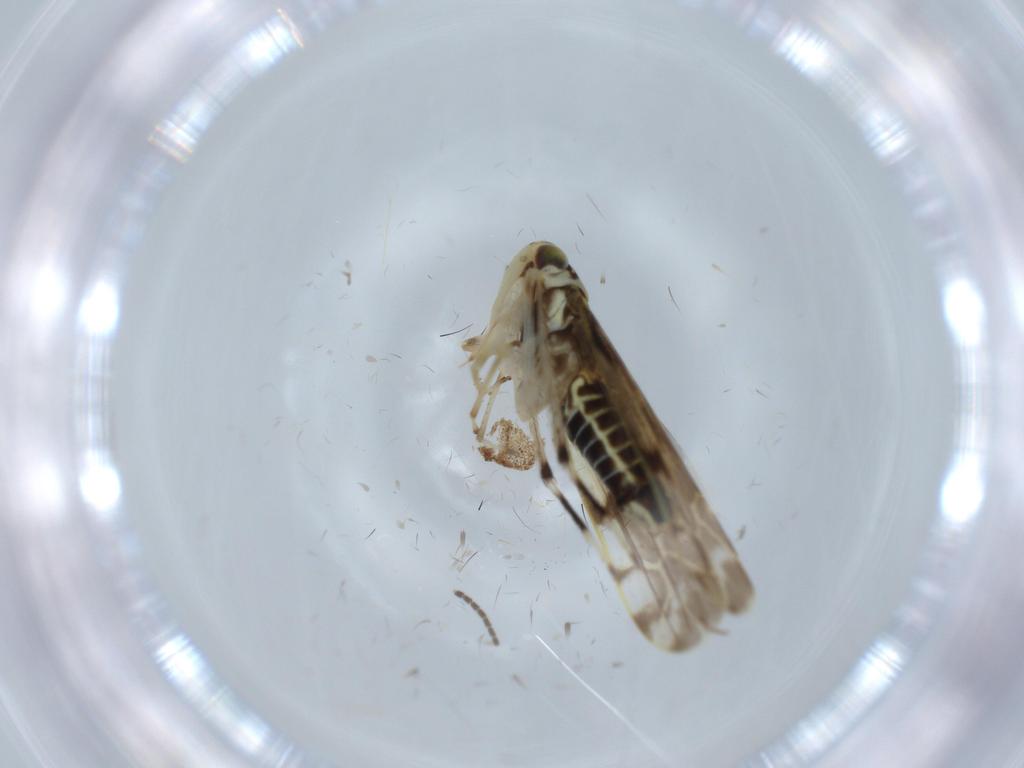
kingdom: Animalia
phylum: Arthropoda
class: Insecta
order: Hemiptera
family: Cicadellidae
